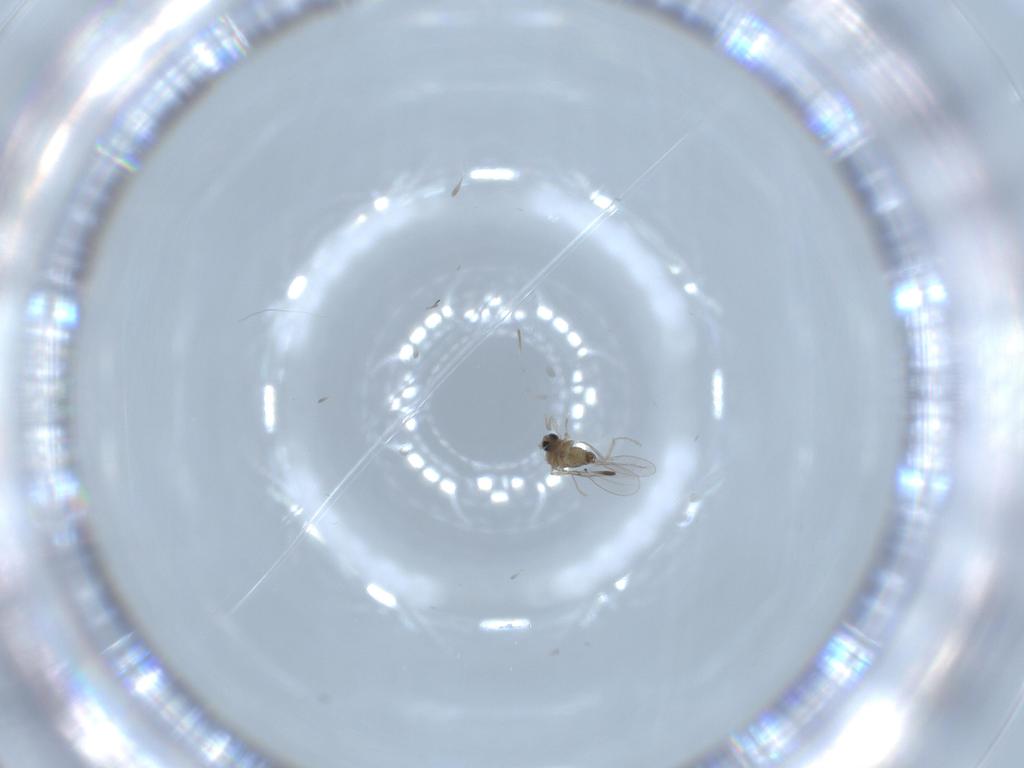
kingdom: Animalia
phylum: Arthropoda
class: Insecta
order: Diptera
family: Cecidomyiidae
